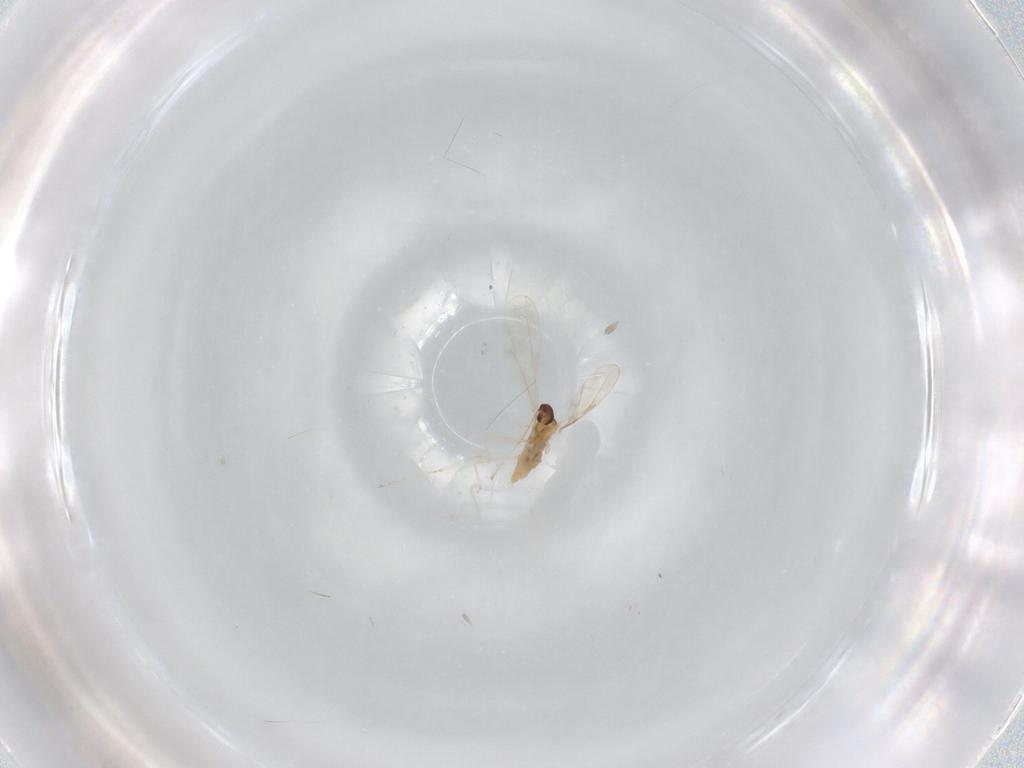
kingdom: Animalia
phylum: Arthropoda
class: Insecta
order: Diptera
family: Cecidomyiidae
